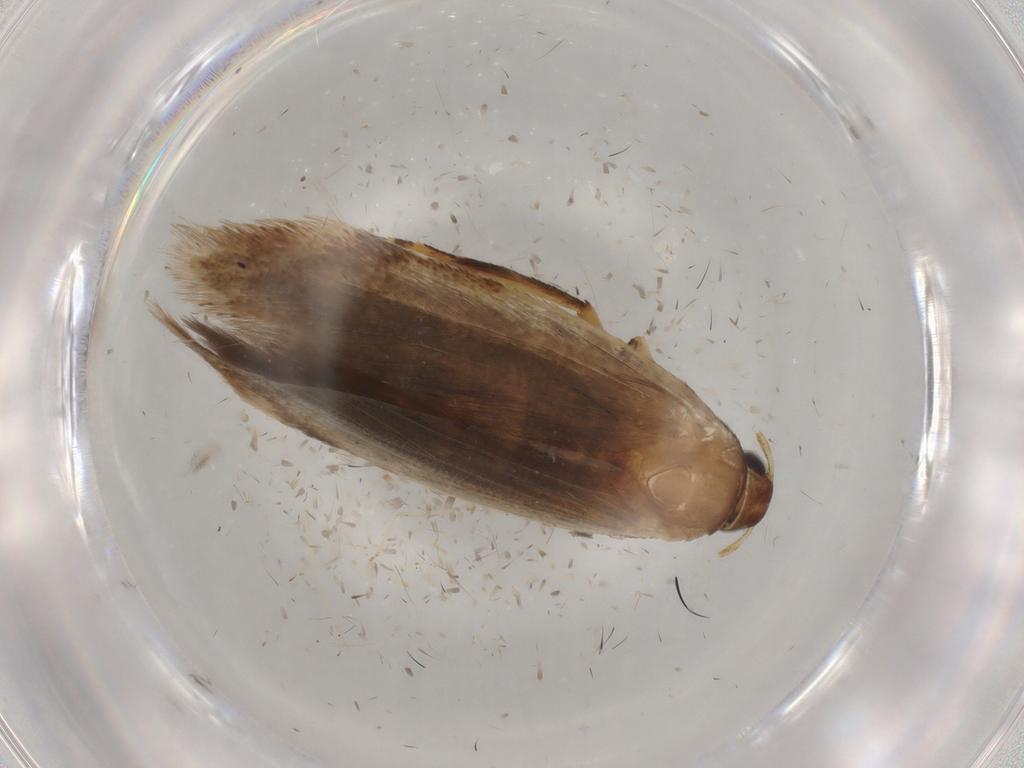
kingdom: Animalia
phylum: Arthropoda
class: Insecta
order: Lepidoptera
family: Gelechiidae
